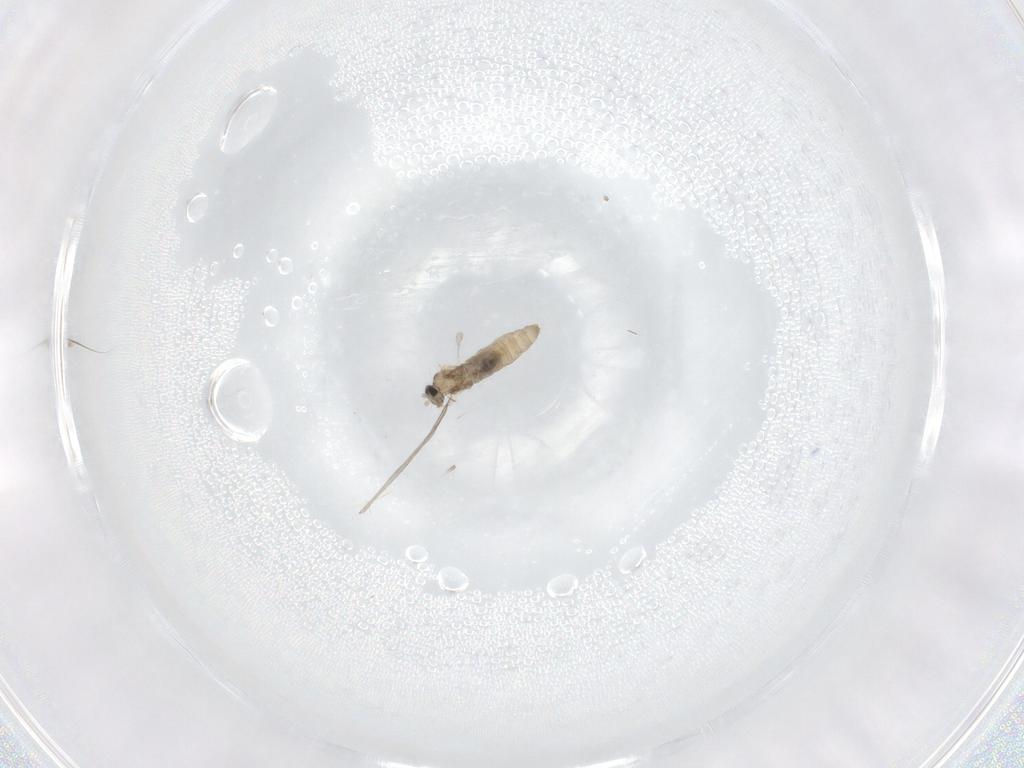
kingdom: Animalia
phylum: Arthropoda
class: Insecta
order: Diptera
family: Cecidomyiidae
